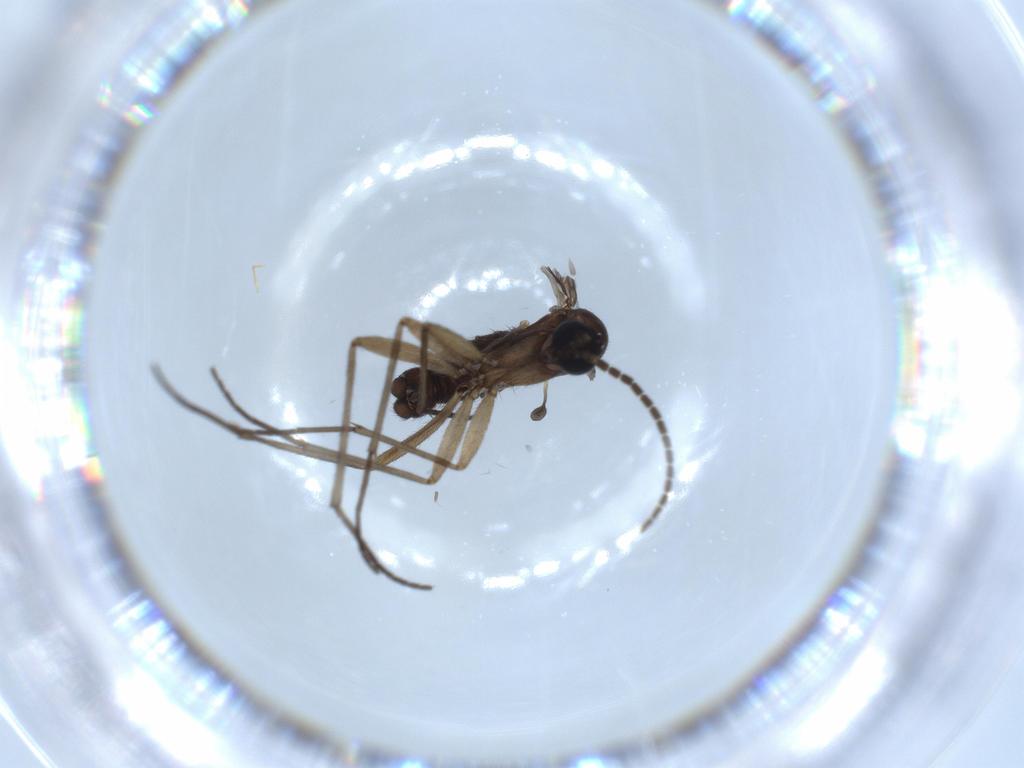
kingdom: Animalia
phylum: Arthropoda
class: Insecta
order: Diptera
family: Sciaridae
